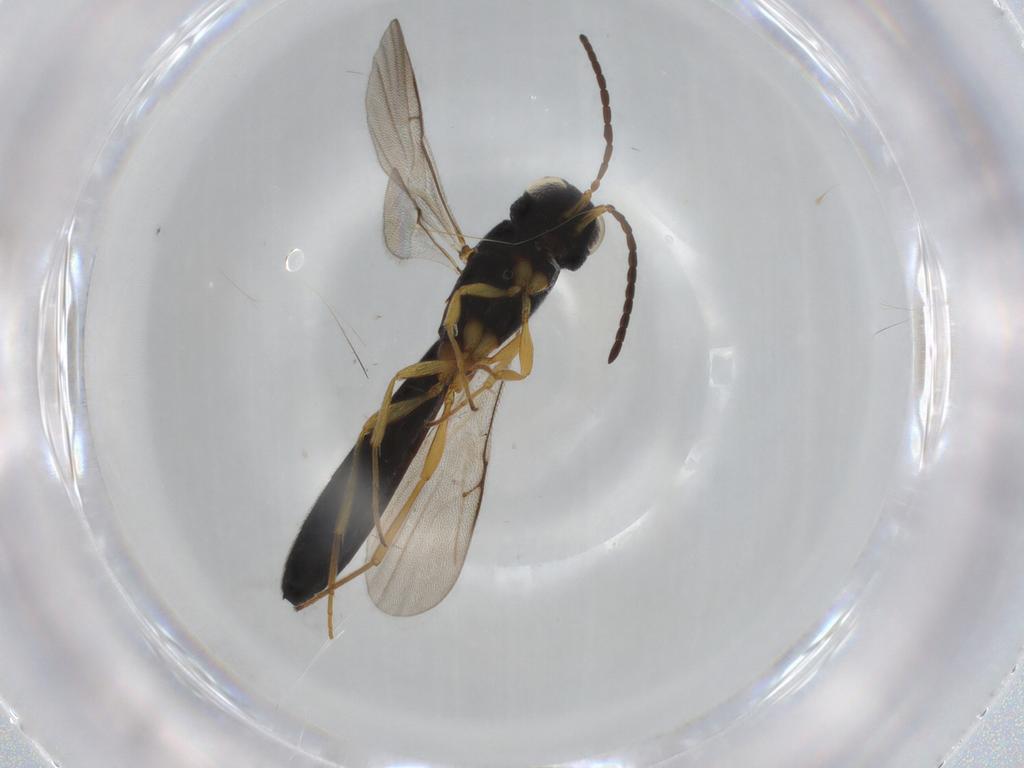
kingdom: Animalia
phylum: Arthropoda
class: Insecta
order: Hymenoptera
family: Scelionidae
